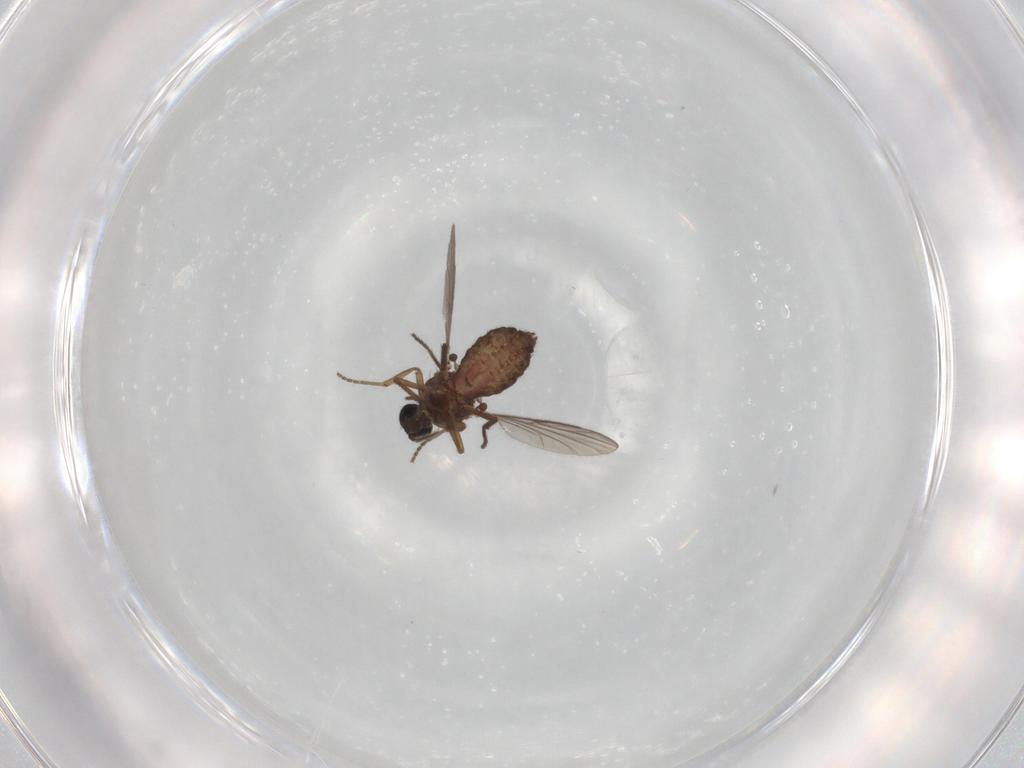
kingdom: Animalia
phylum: Arthropoda
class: Insecta
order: Diptera
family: Ceratopogonidae
